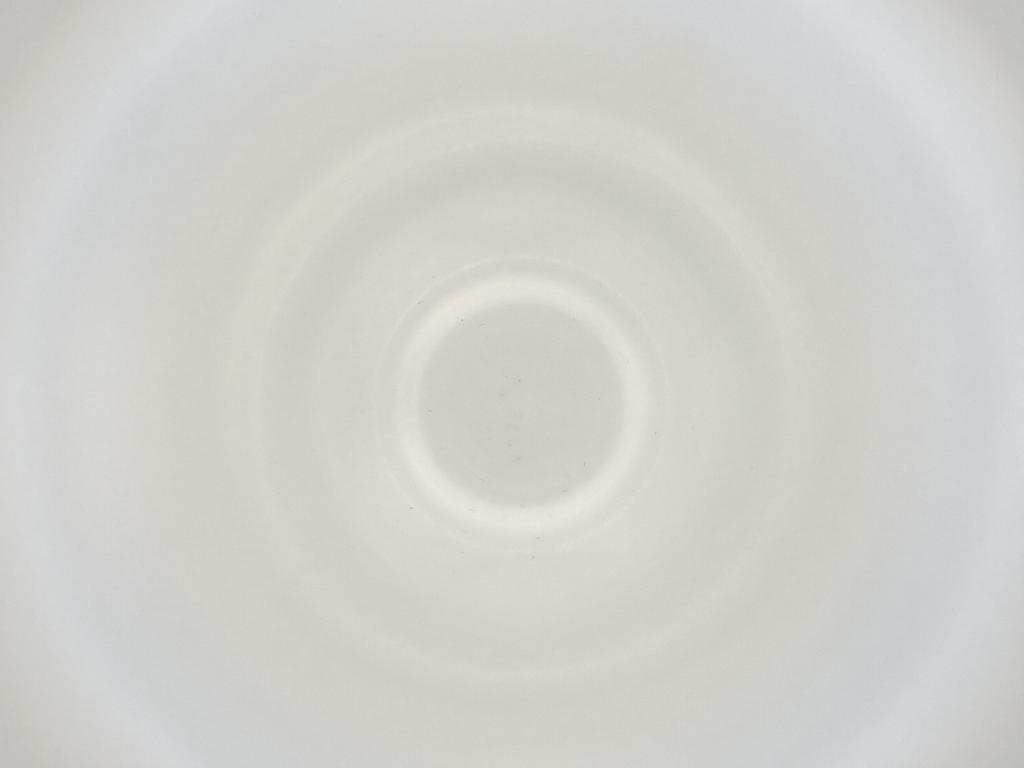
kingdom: Animalia
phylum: Arthropoda
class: Insecta
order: Diptera
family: Cecidomyiidae
